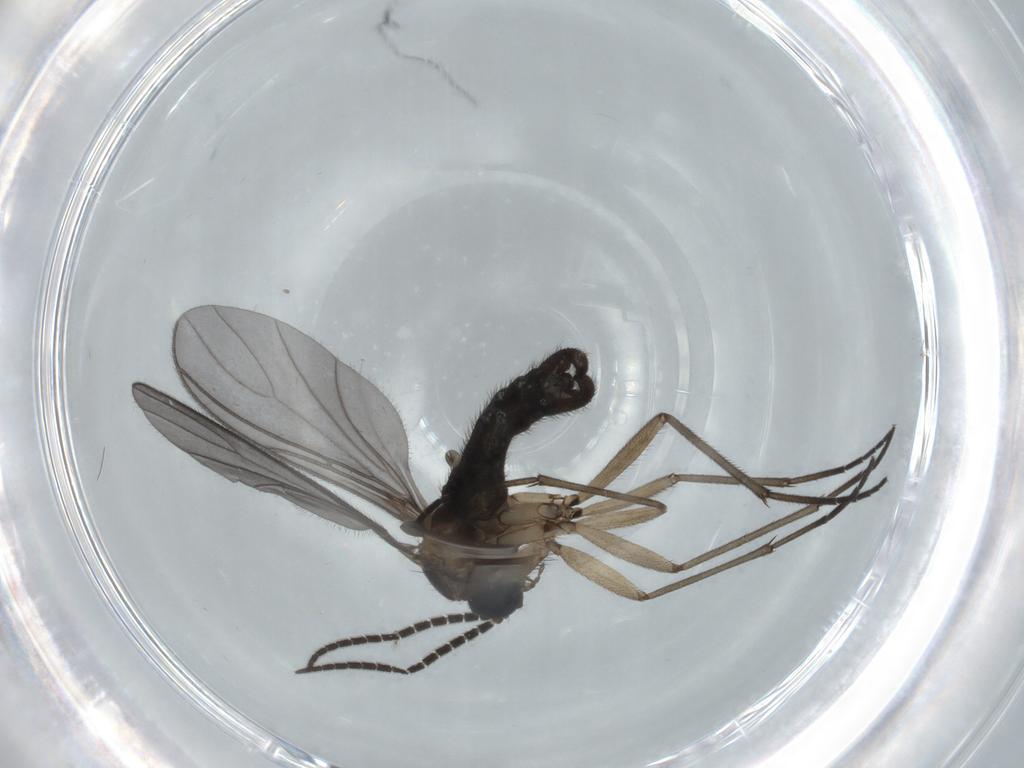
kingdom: Animalia
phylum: Arthropoda
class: Insecta
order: Diptera
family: Sciaridae
